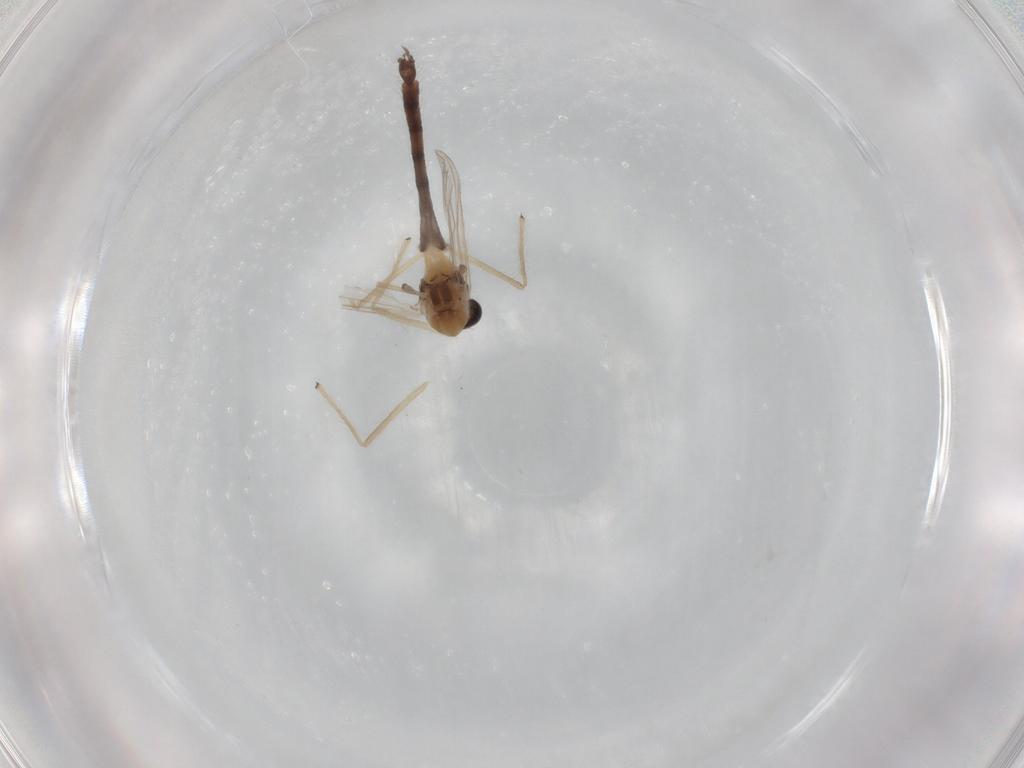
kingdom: Animalia
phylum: Arthropoda
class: Insecta
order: Diptera
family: Chironomidae
